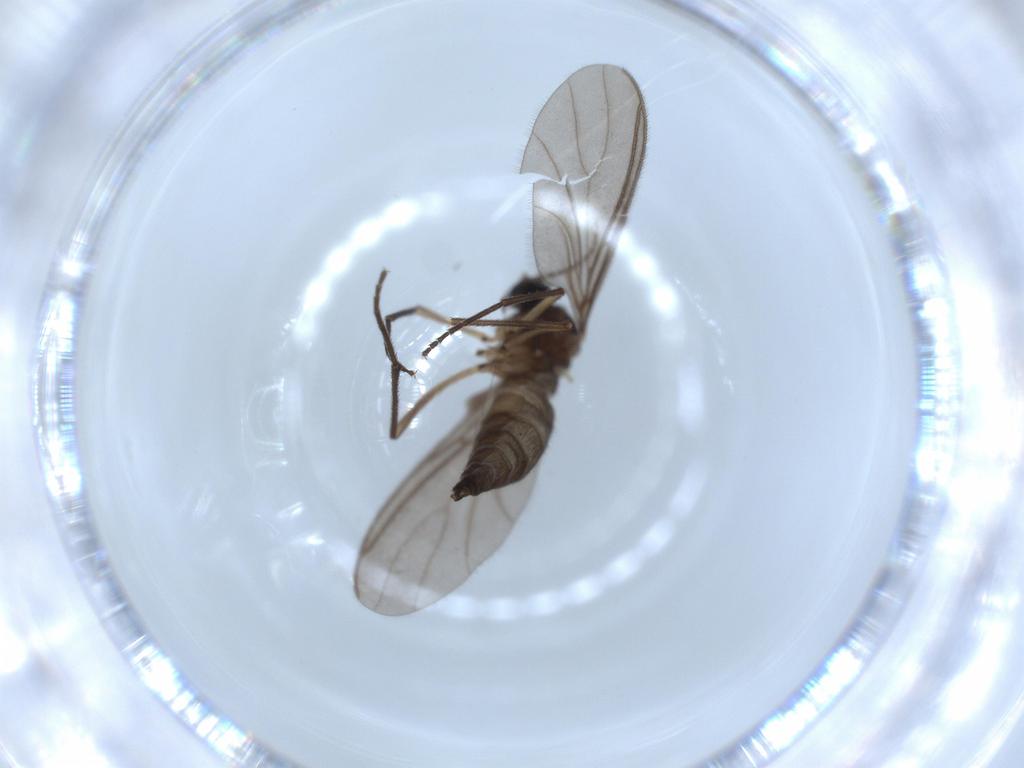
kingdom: Animalia
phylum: Arthropoda
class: Insecta
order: Diptera
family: Sciaridae
